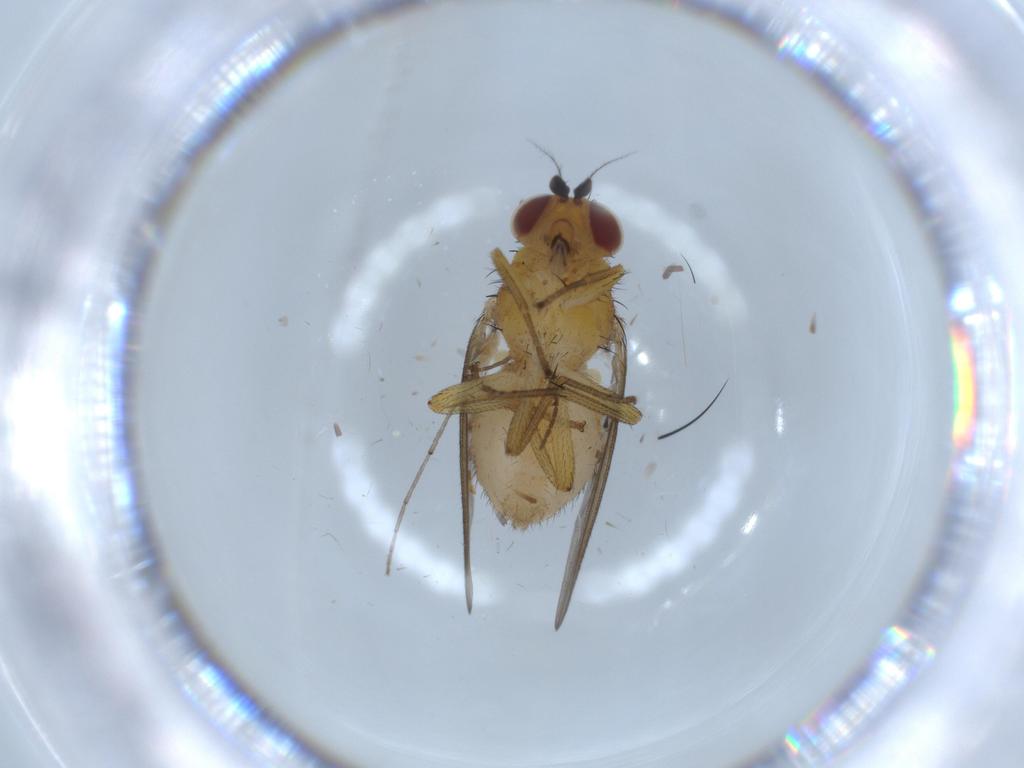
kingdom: Animalia
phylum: Arthropoda
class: Insecta
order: Diptera
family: Lauxaniidae
